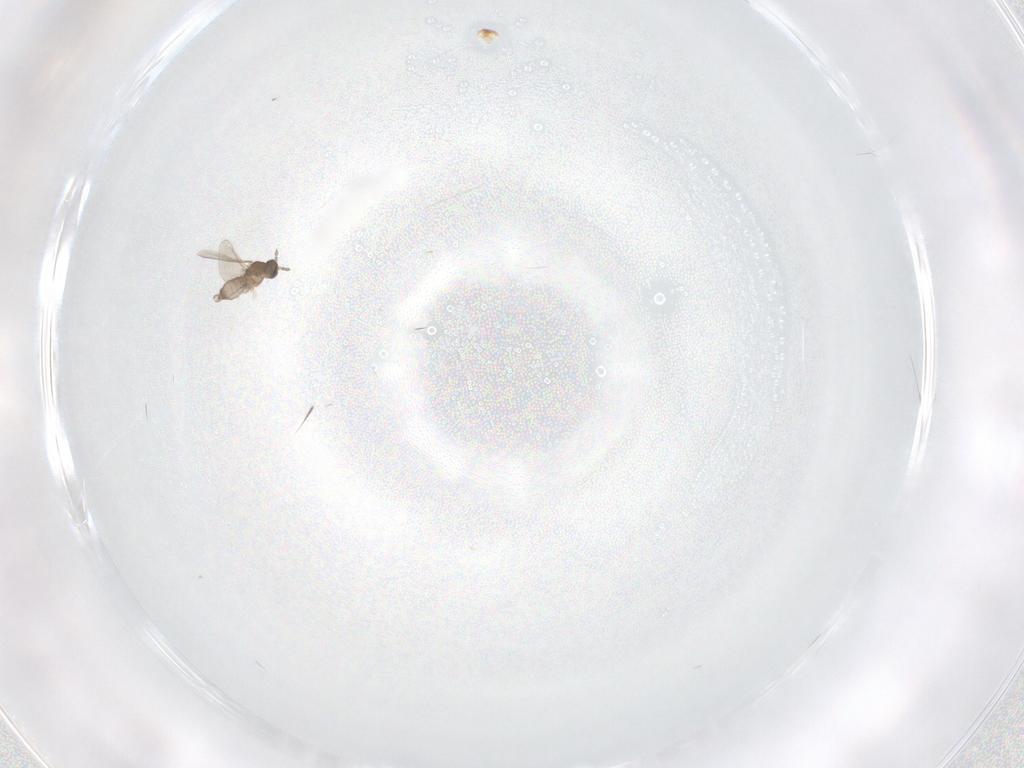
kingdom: Animalia
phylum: Arthropoda
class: Insecta
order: Diptera
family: Cecidomyiidae
